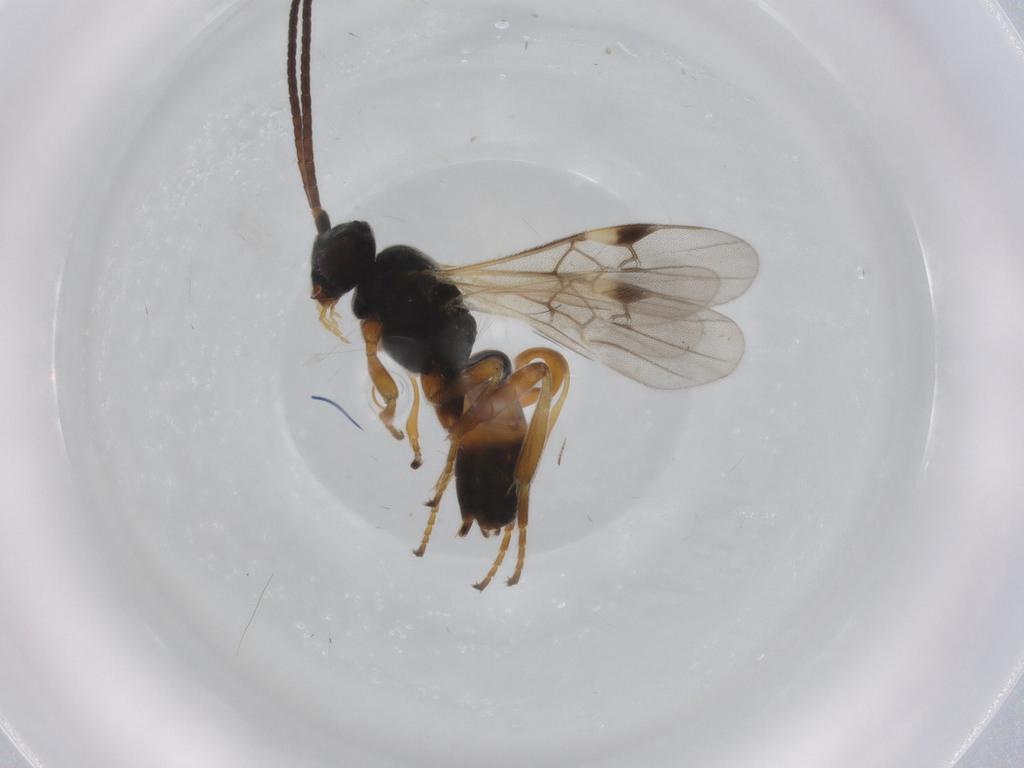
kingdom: Animalia
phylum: Arthropoda
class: Insecta
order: Hymenoptera
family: Braconidae
